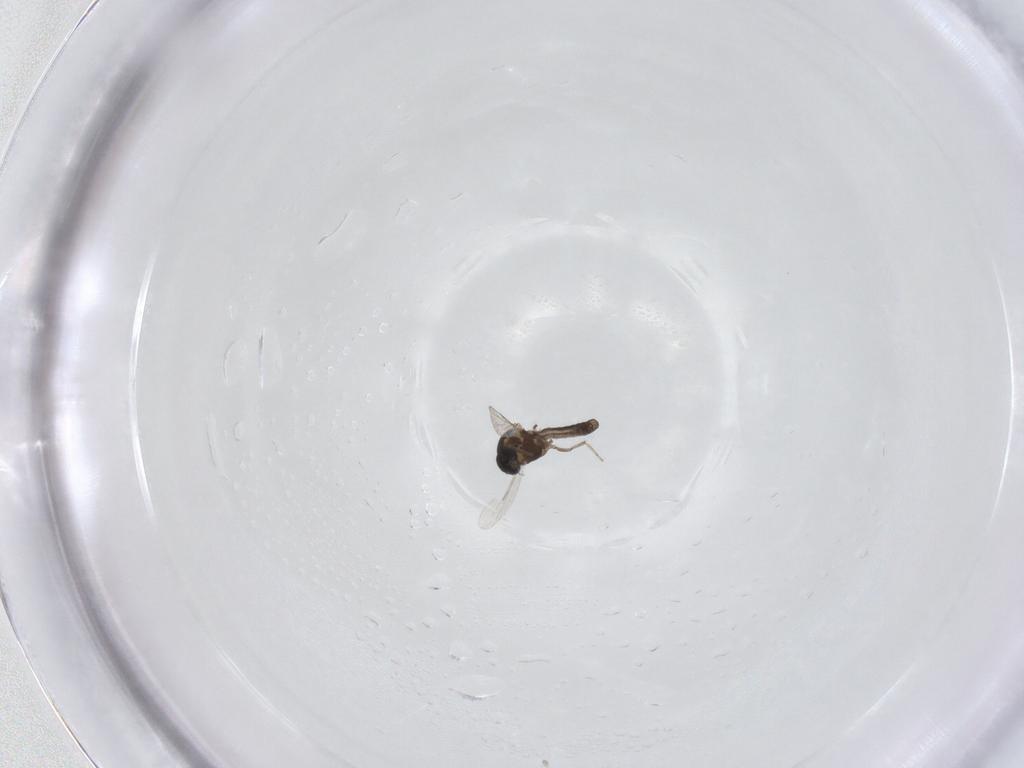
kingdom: Animalia
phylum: Arthropoda
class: Insecta
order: Diptera
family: Ceratopogonidae
